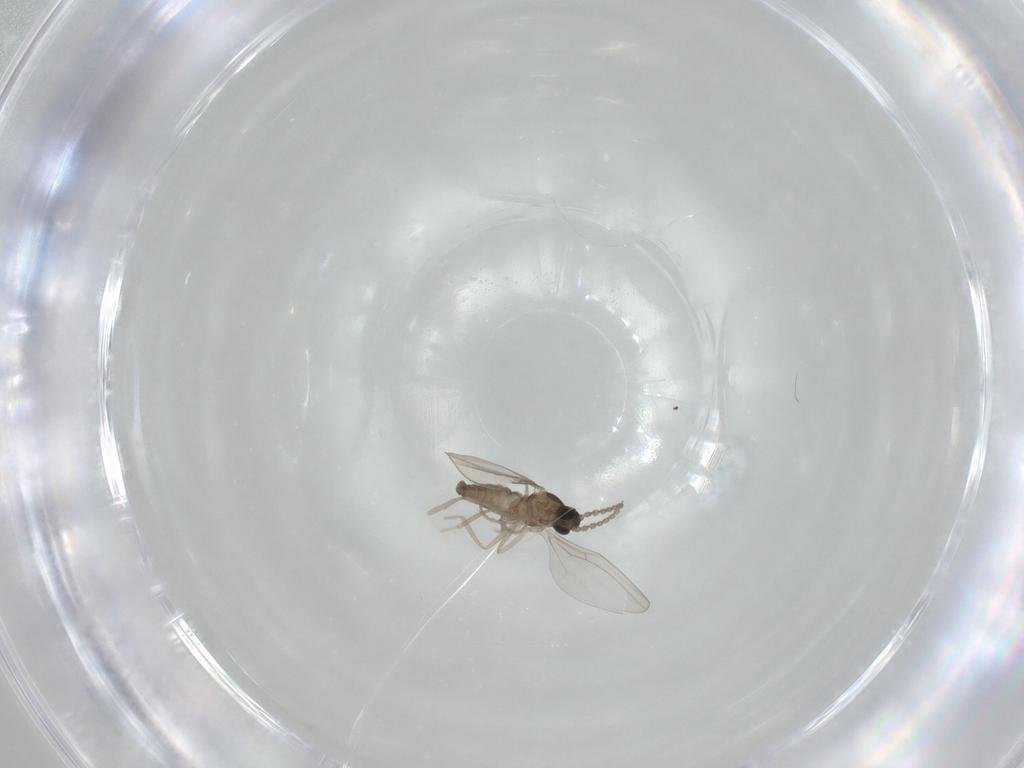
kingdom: Animalia
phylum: Arthropoda
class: Insecta
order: Diptera
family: Cecidomyiidae
